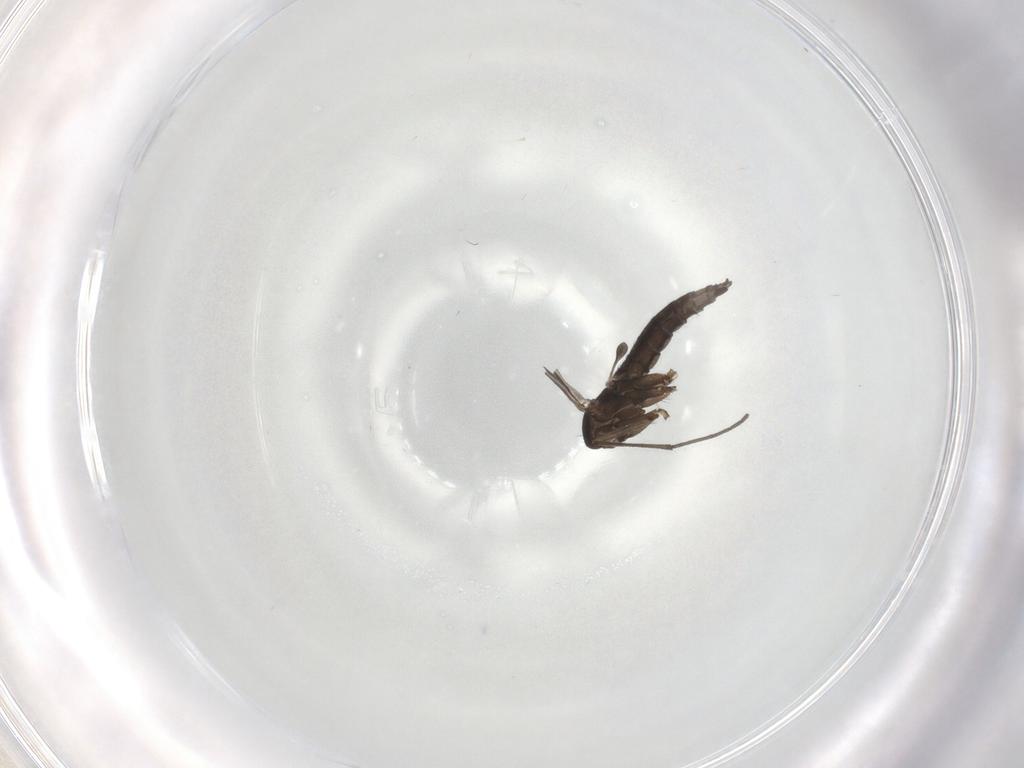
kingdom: Animalia
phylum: Arthropoda
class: Insecta
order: Diptera
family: Sciaridae
